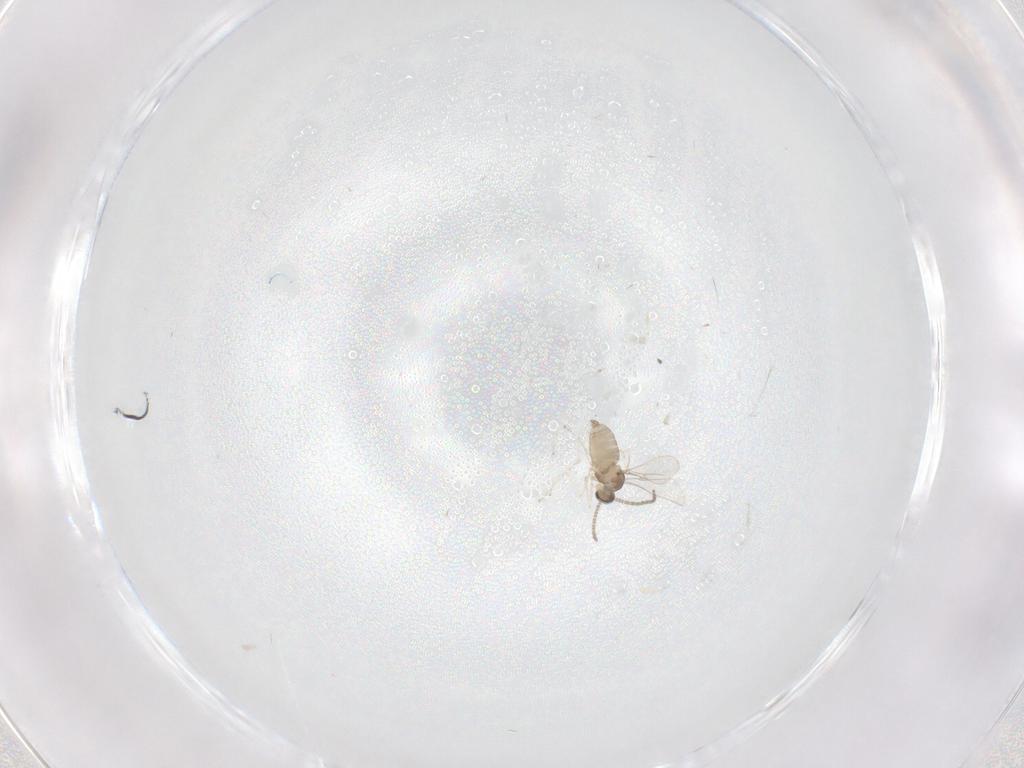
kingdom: Animalia
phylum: Arthropoda
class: Insecta
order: Diptera
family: Cecidomyiidae
